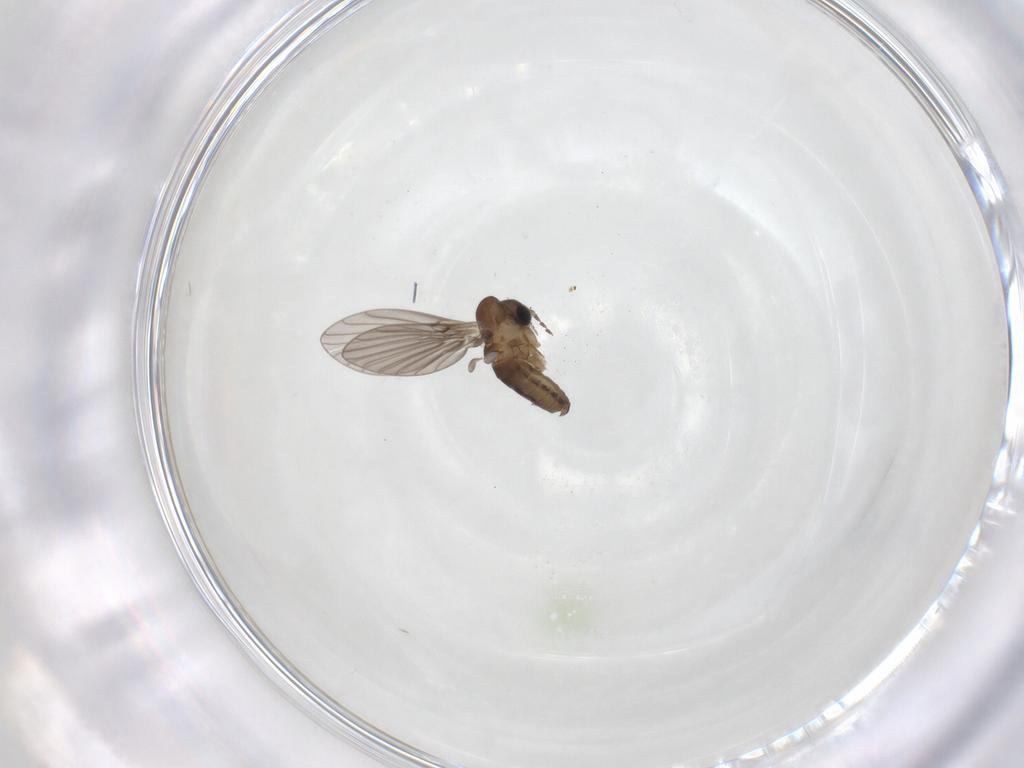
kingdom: Animalia
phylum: Arthropoda
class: Insecta
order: Diptera
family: Psychodidae
